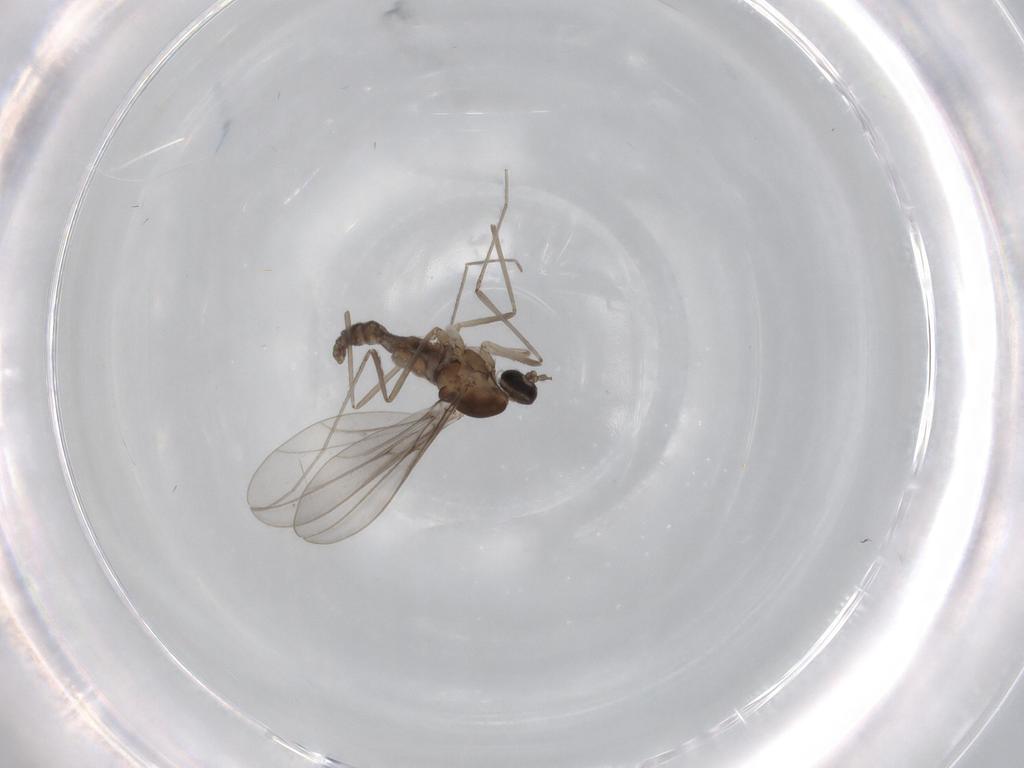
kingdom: Animalia
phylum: Arthropoda
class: Insecta
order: Diptera
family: Cecidomyiidae
